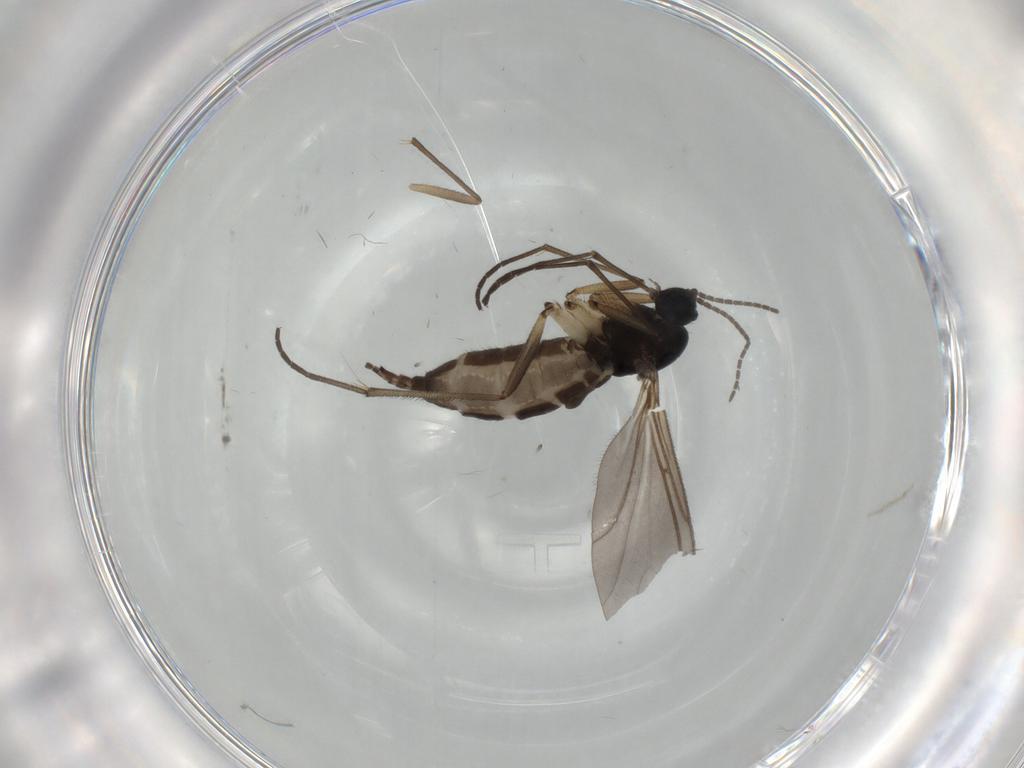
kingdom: Animalia
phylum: Arthropoda
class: Insecta
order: Diptera
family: Sciaridae
